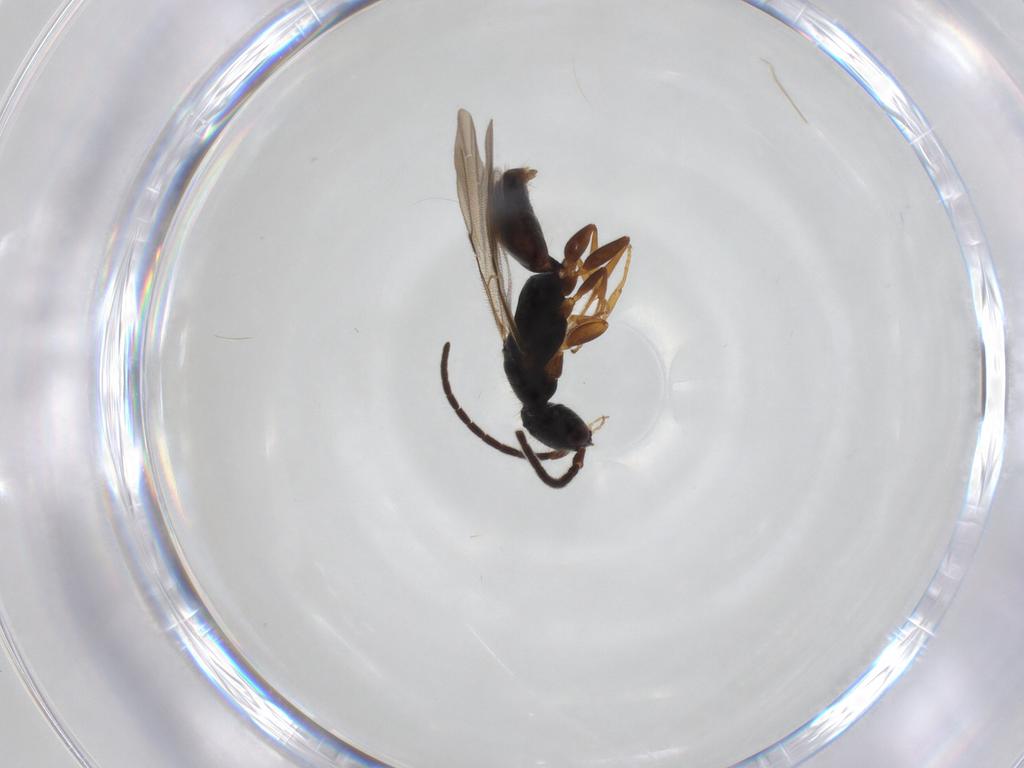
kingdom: Animalia
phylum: Arthropoda
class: Insecta
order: Hymenoptera
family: Bethylidae
